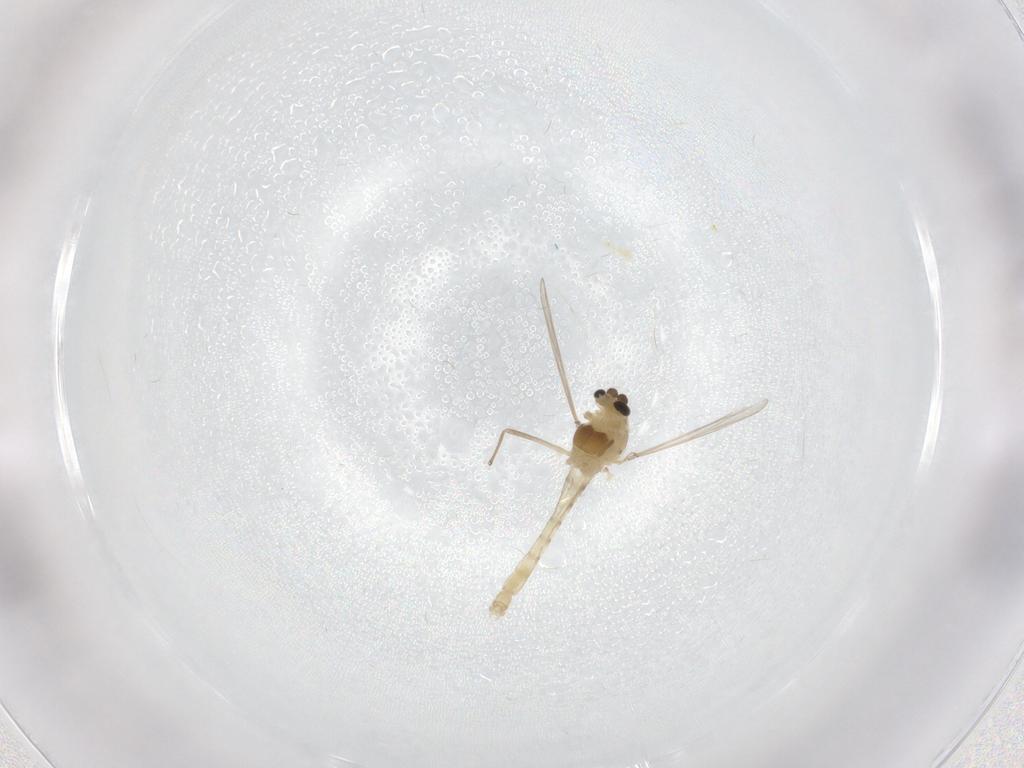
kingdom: Animalia
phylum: Arthropoda
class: Insecta
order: Diptera
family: Chironomidae
